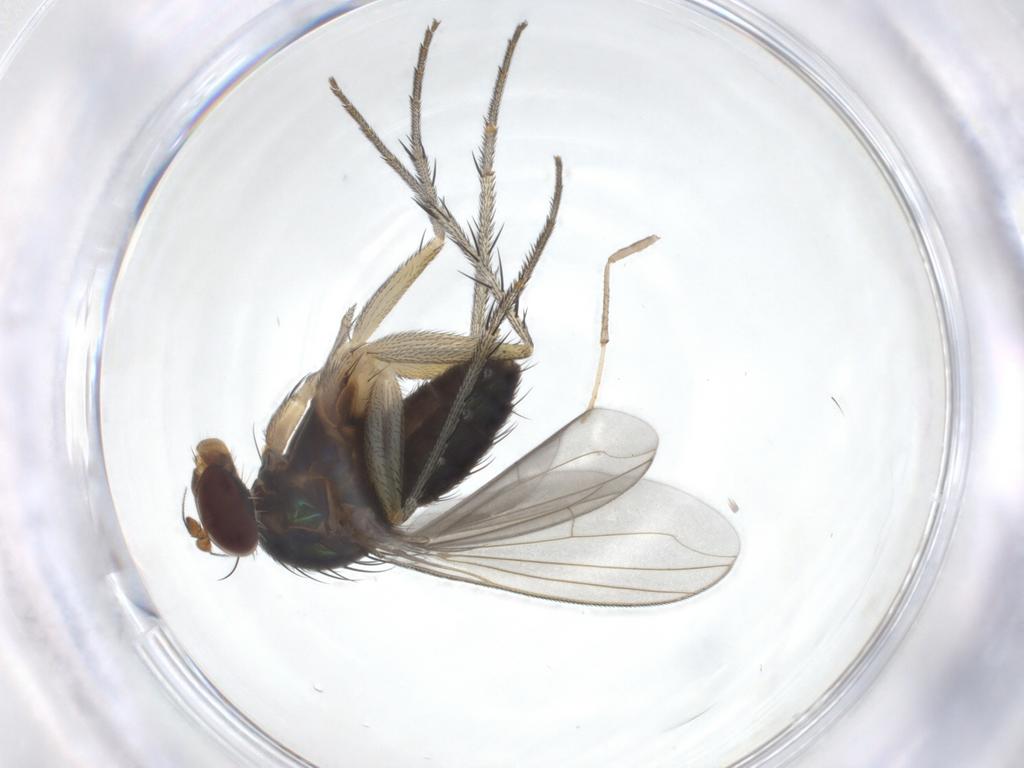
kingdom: Animalia
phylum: Arthropoda
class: Insecta
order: Diptera
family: Dolichopodidae
